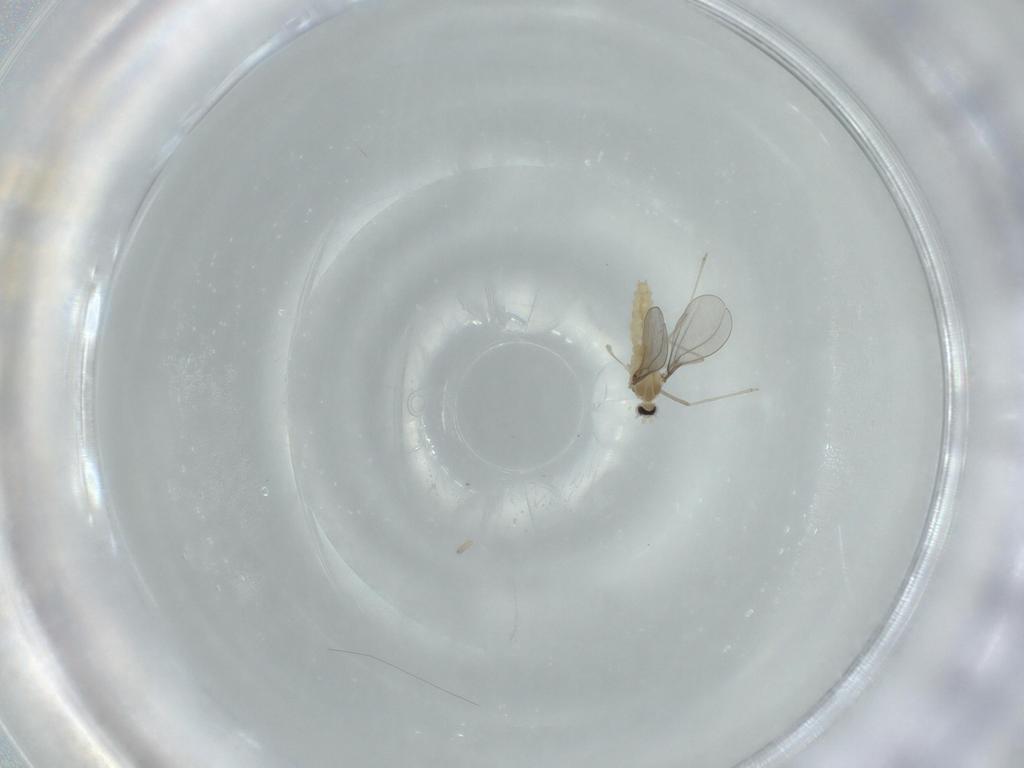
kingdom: Animalia
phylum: Arthropoda
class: Insecta
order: Diptera
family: Cecidomyiidae
